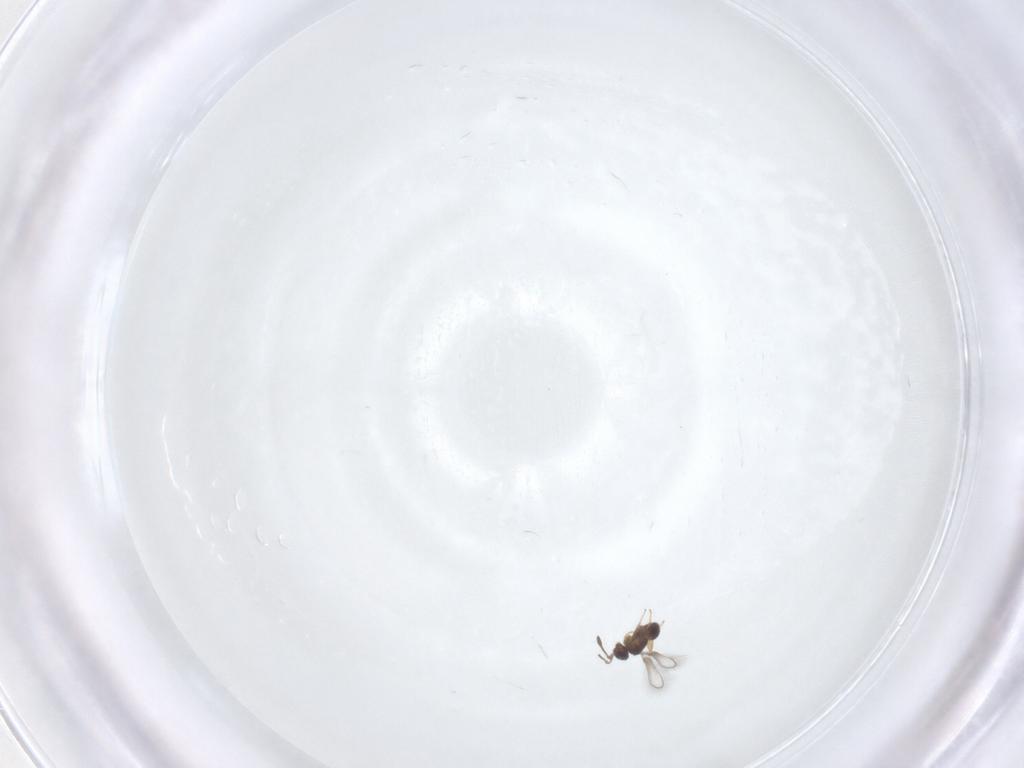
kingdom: Animalia
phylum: Arthropoda
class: Insecta
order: Hymenoptera
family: Mymaridae
